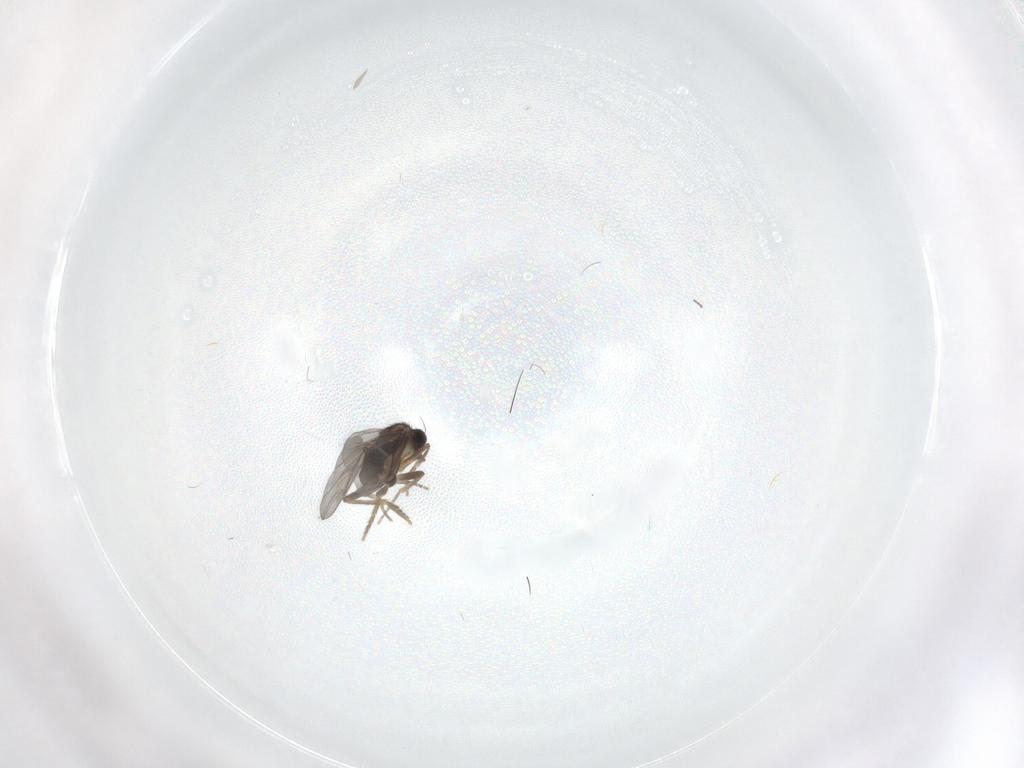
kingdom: Animalia
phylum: Arthropoda
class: Insecta
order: Diptera
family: Cecidomyiidae
